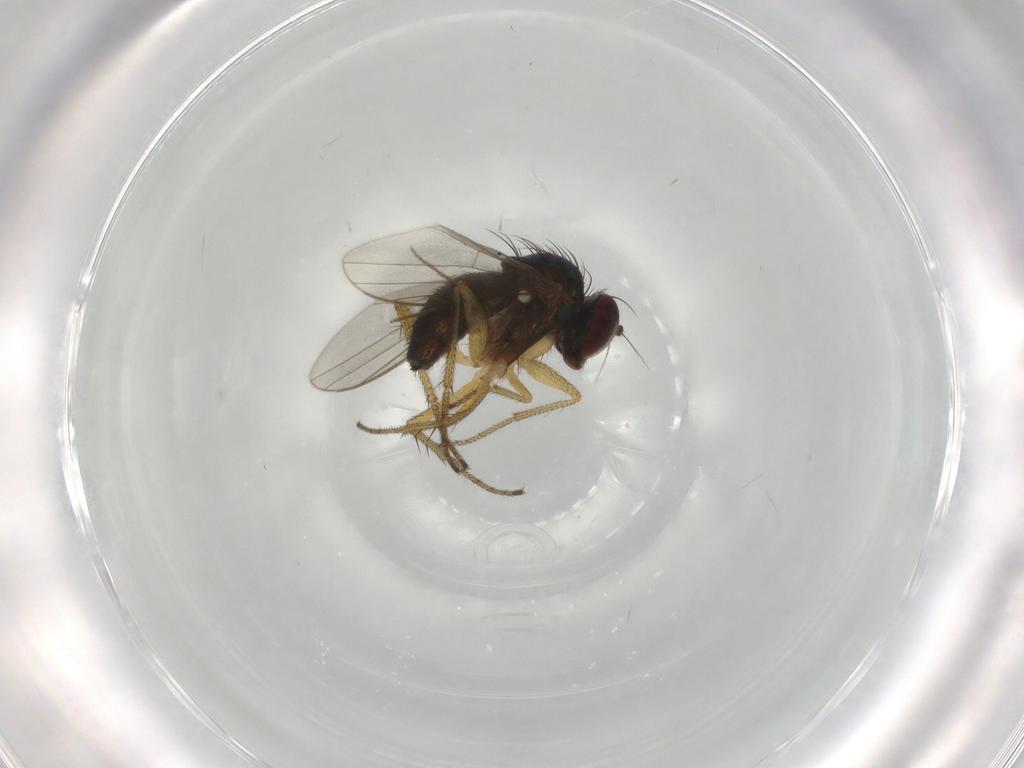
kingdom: Animalia
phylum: Arthropoda
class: Insecta
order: Diptera
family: Dolichopodidae
